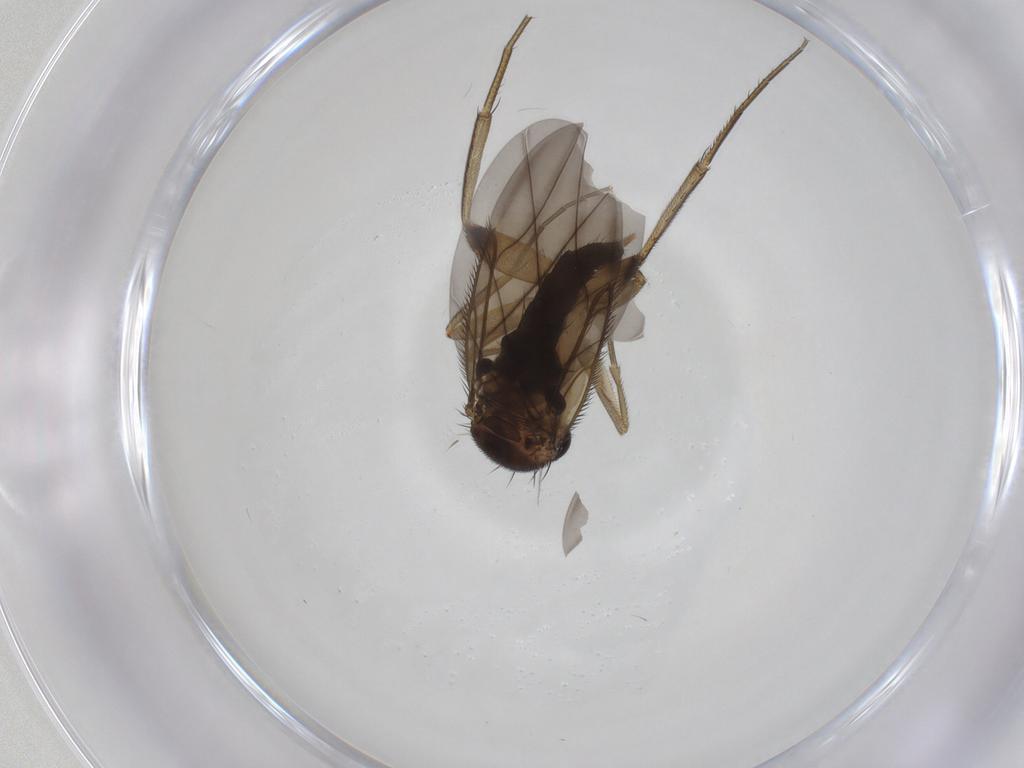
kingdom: Animalia
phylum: Arthropoda
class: Insecta
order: Diptera
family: Phoridae
